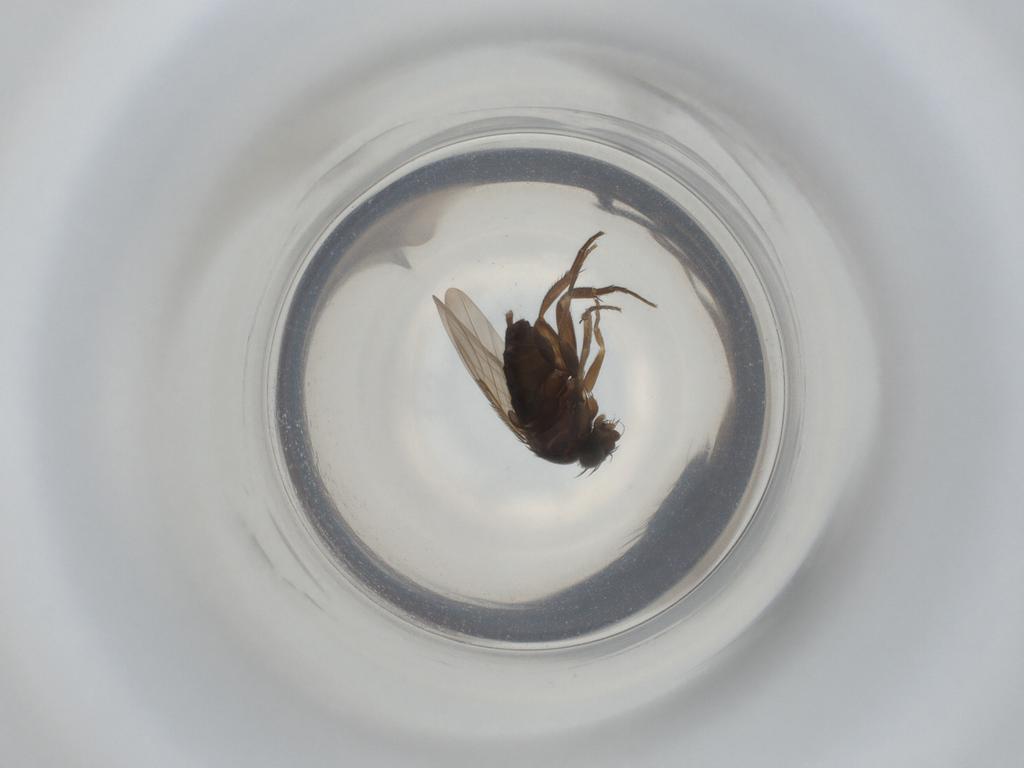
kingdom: Animalia
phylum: Arthropoda
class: Insecta
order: Diptera
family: Phoridae
